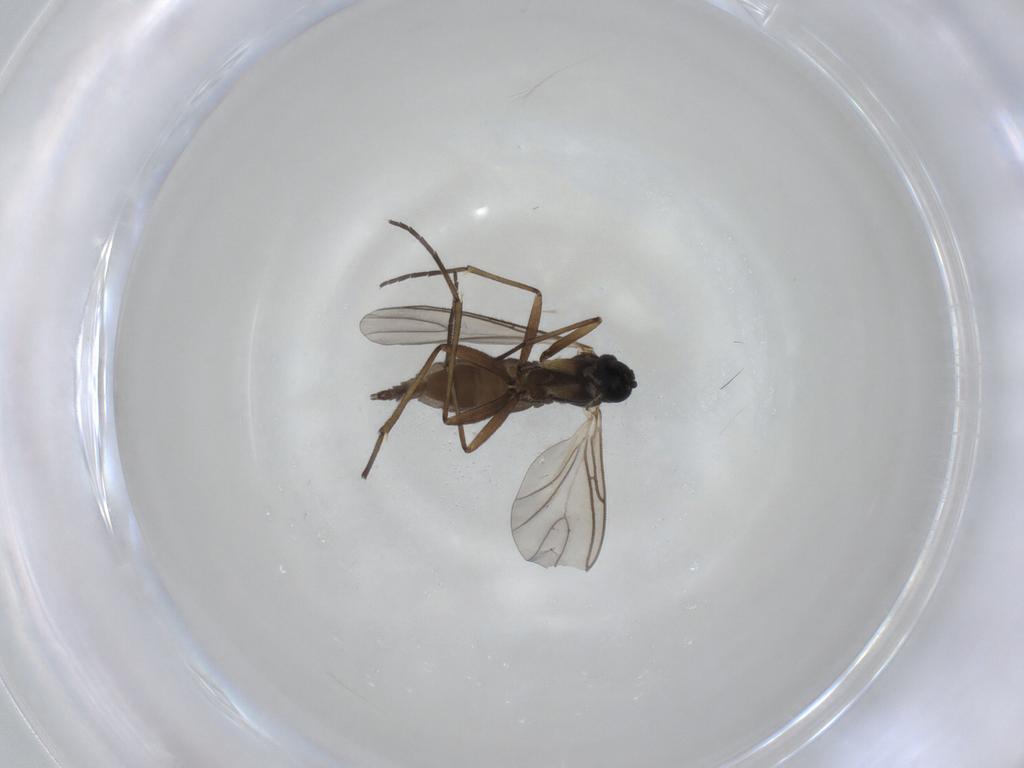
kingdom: Animalia
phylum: Arthropoda
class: Insecta
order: Diptera
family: Sciaridae
